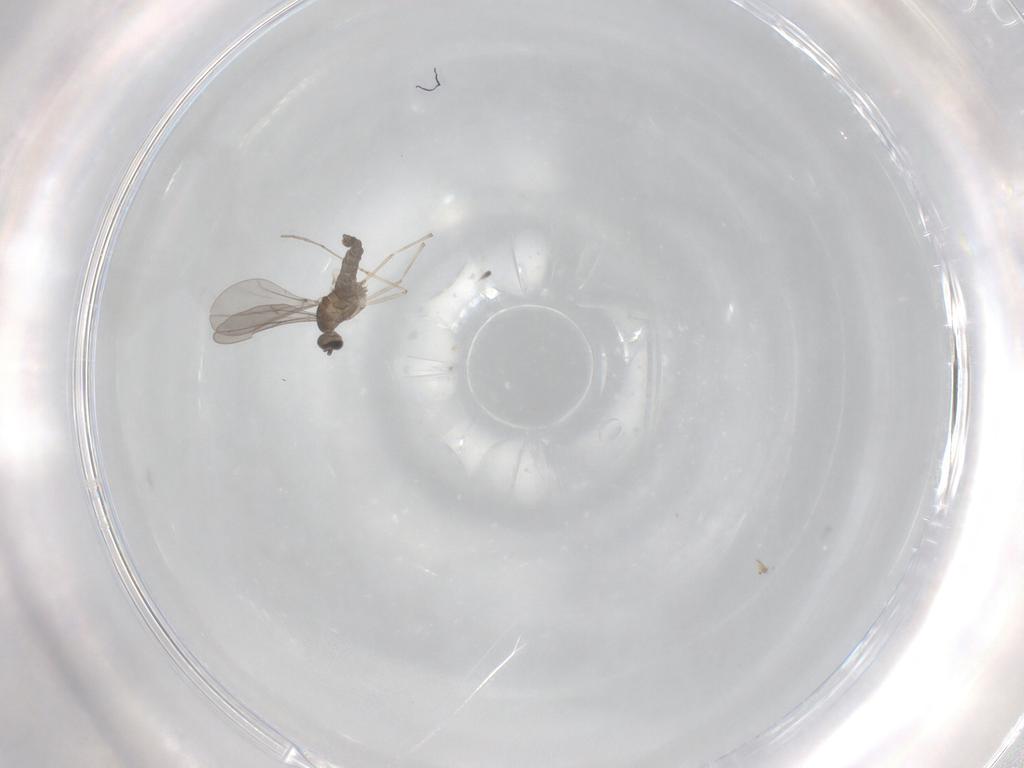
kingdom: Animalia
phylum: Arthropoda
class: Insecta
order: Diptera
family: Cecidomyiidae
